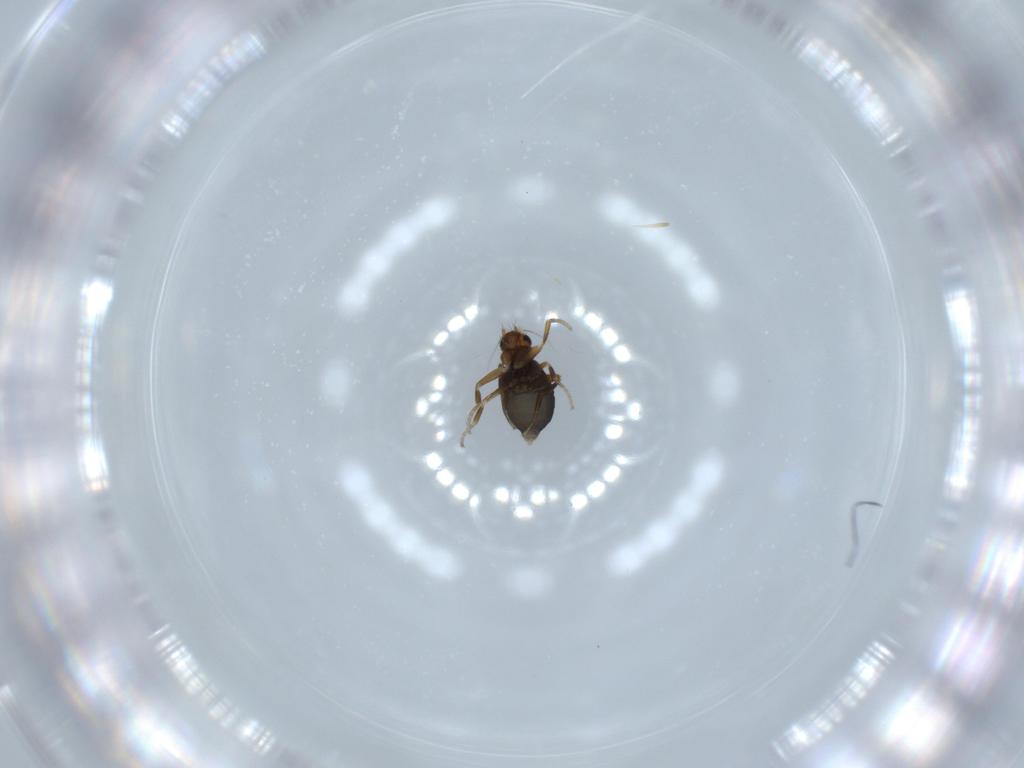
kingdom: Animalia
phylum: Arthropoda
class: Insecta
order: Diptera
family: Phoridae
